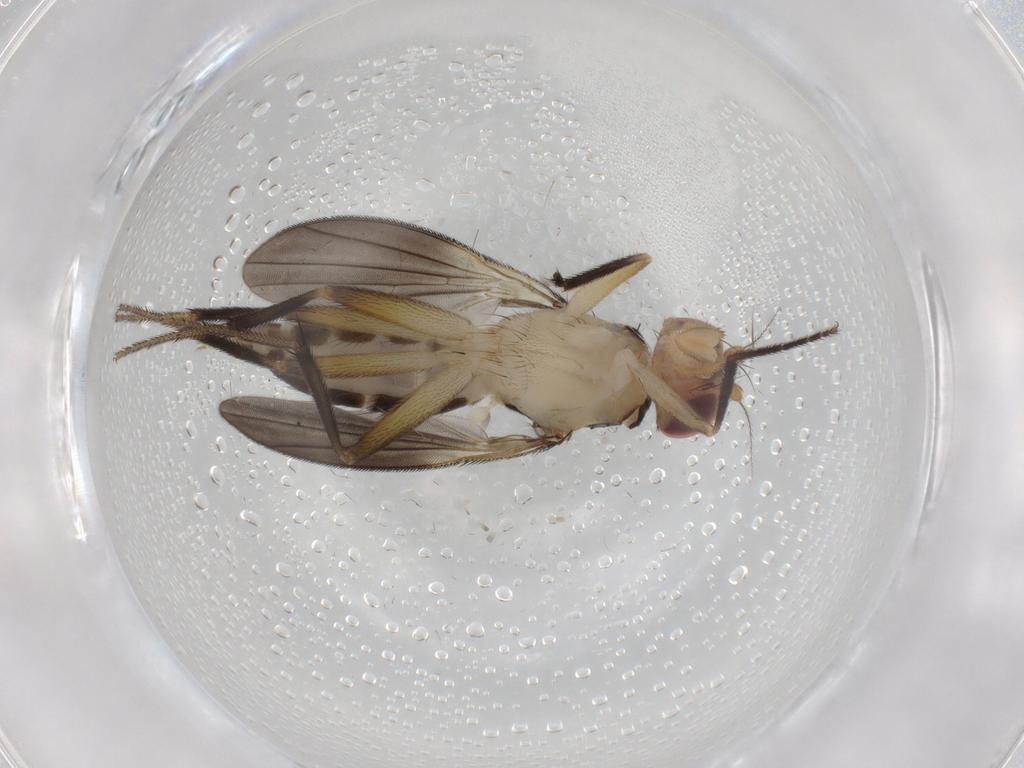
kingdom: Animalia
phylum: Arthropoda
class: Insecta
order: Diptera
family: Clusiidae
